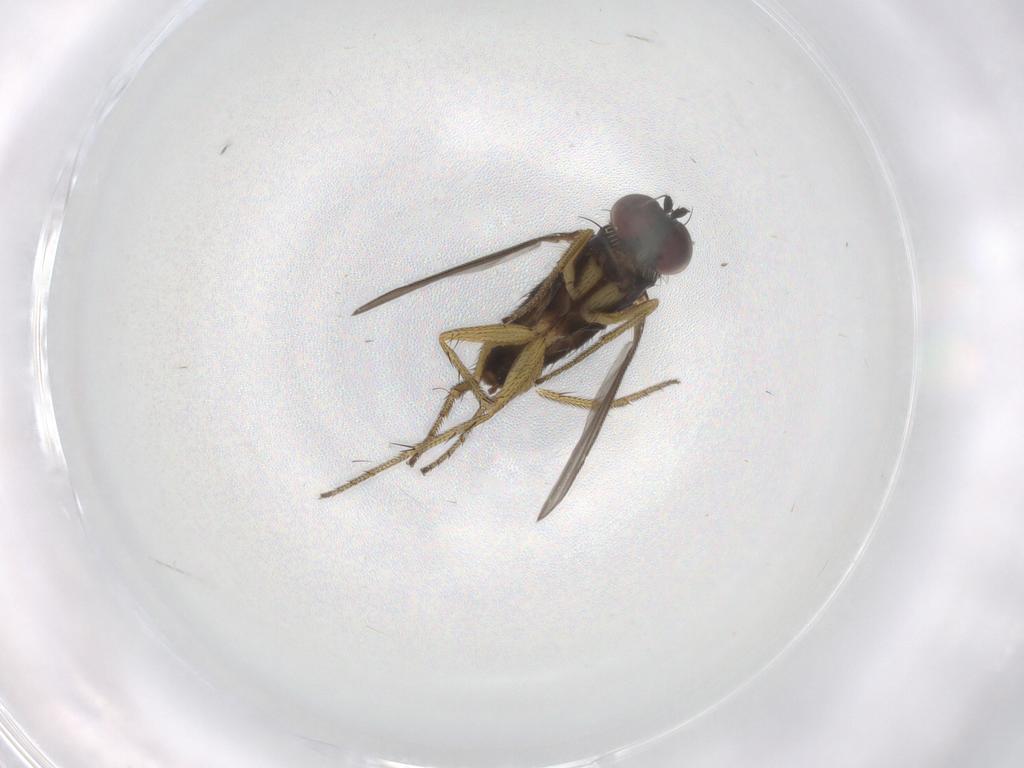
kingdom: Animalia
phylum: Arthropoda
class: Insecta
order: Diptera
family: Dolichopodidae
